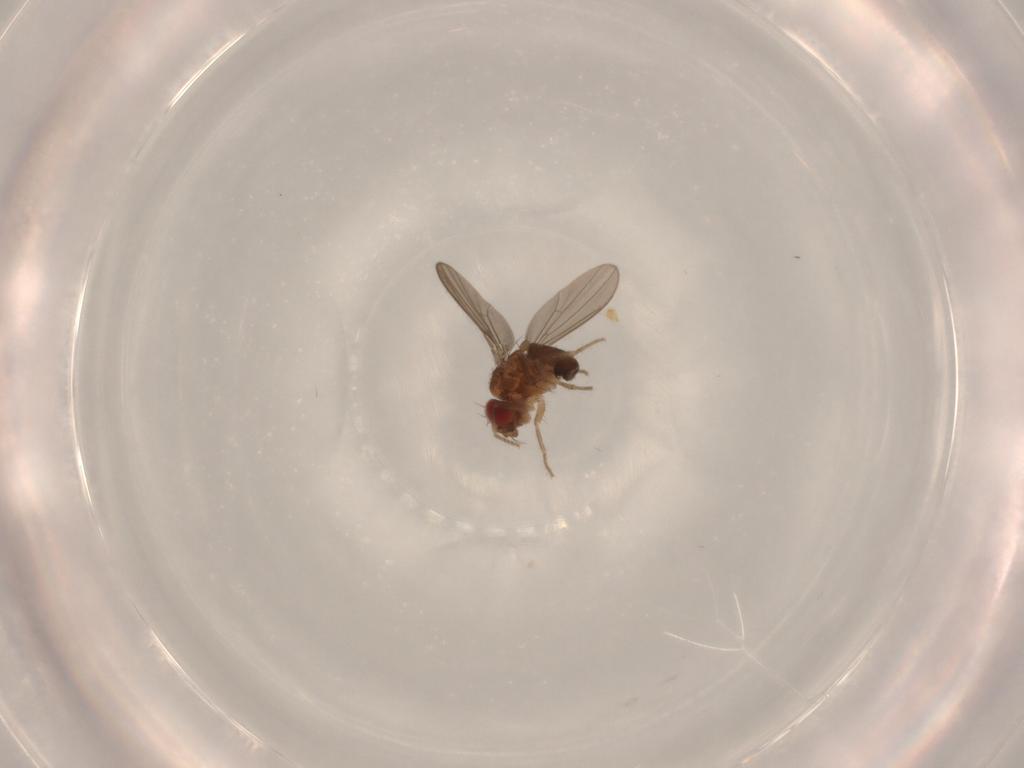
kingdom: Animalia
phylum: Arthropoda
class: Insecta
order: Diptera
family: Drosophilidae
